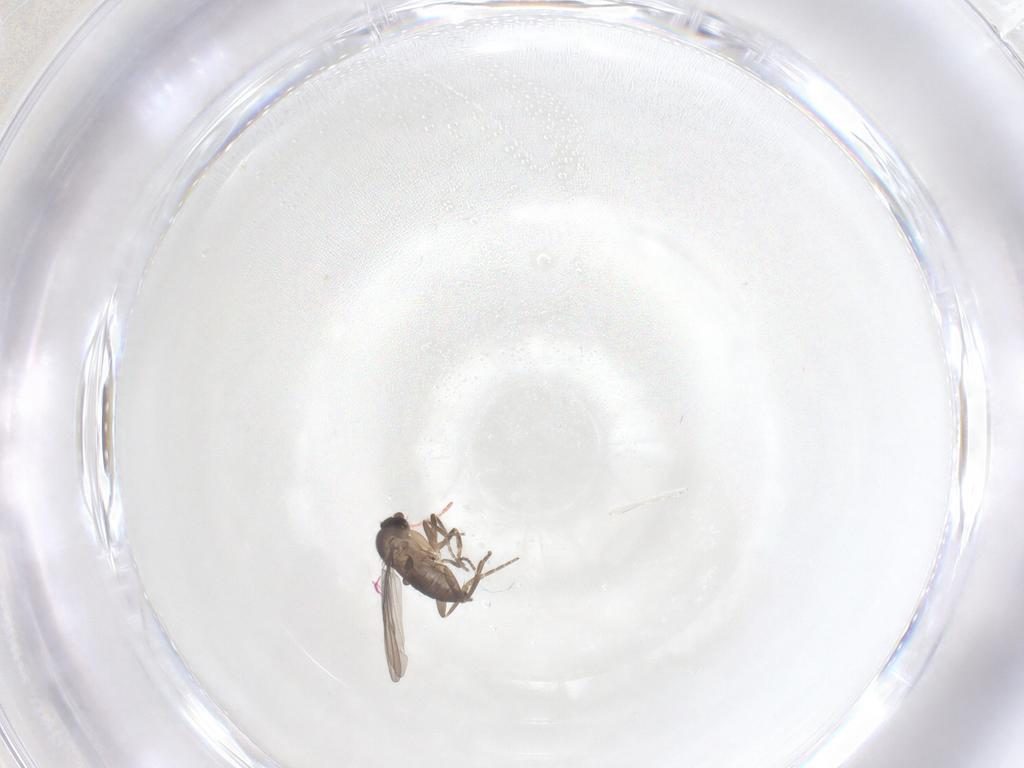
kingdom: Animalia
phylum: Arthropoda
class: Insecta
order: Diptera
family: Phoridae
